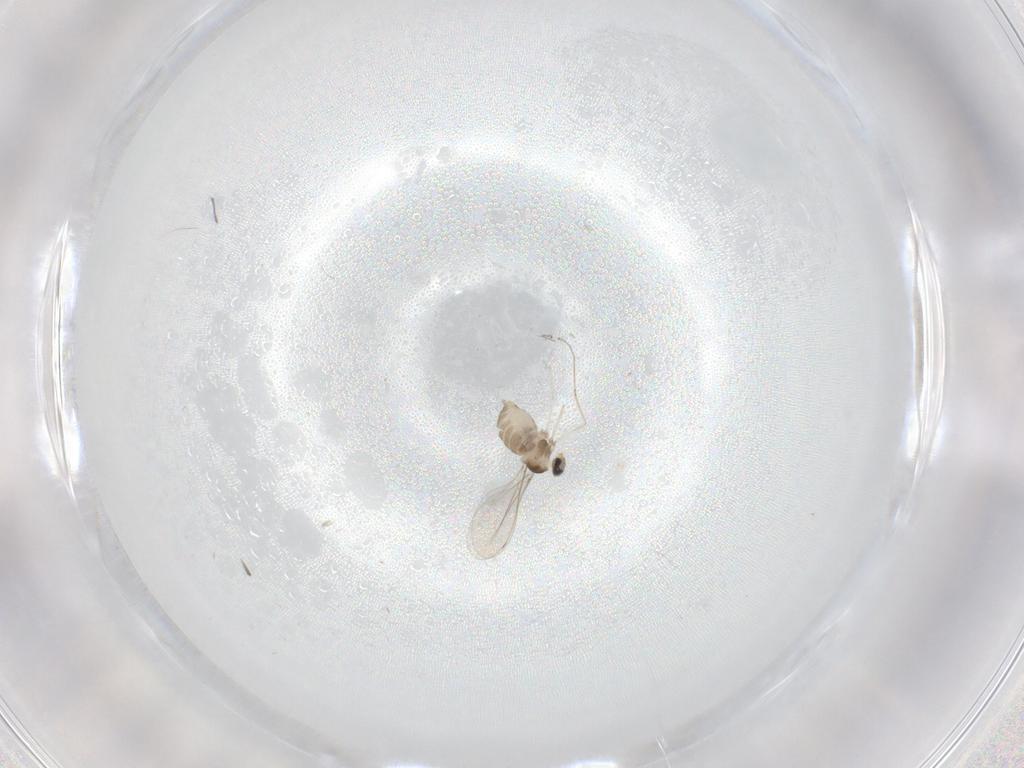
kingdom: Animalia
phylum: Arthropoda
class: Insecta
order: Diptera
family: Cecidomyiidae
